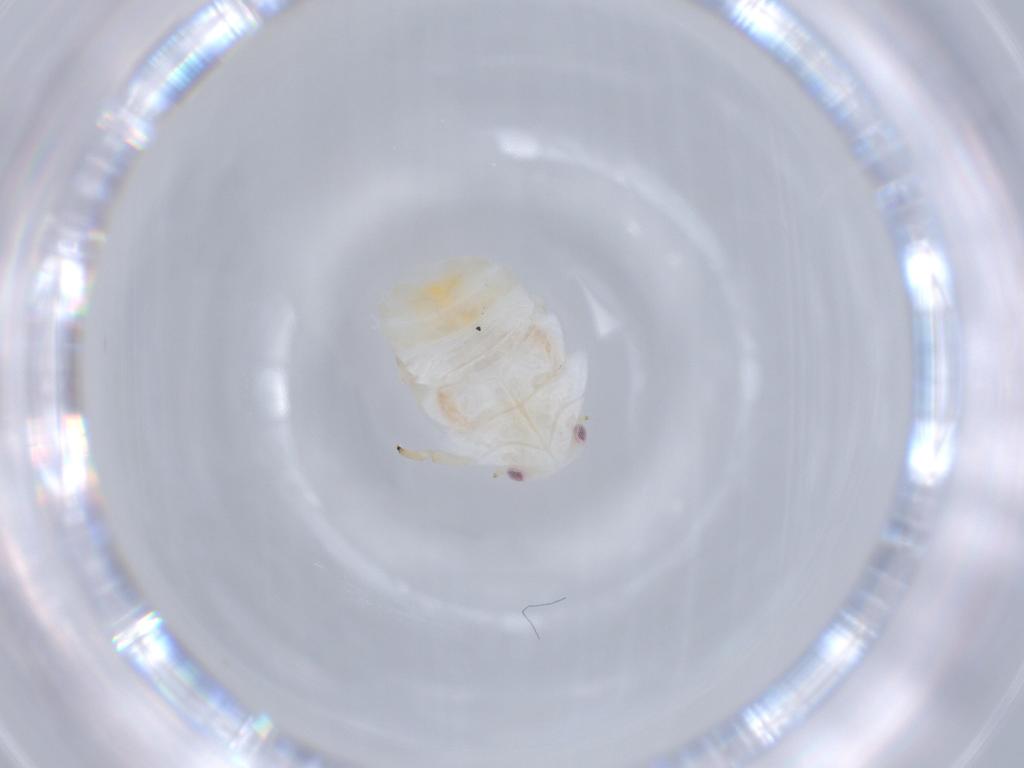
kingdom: Animalia
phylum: Arthropoda
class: Insecta
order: Hemiptera
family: Flatidae
